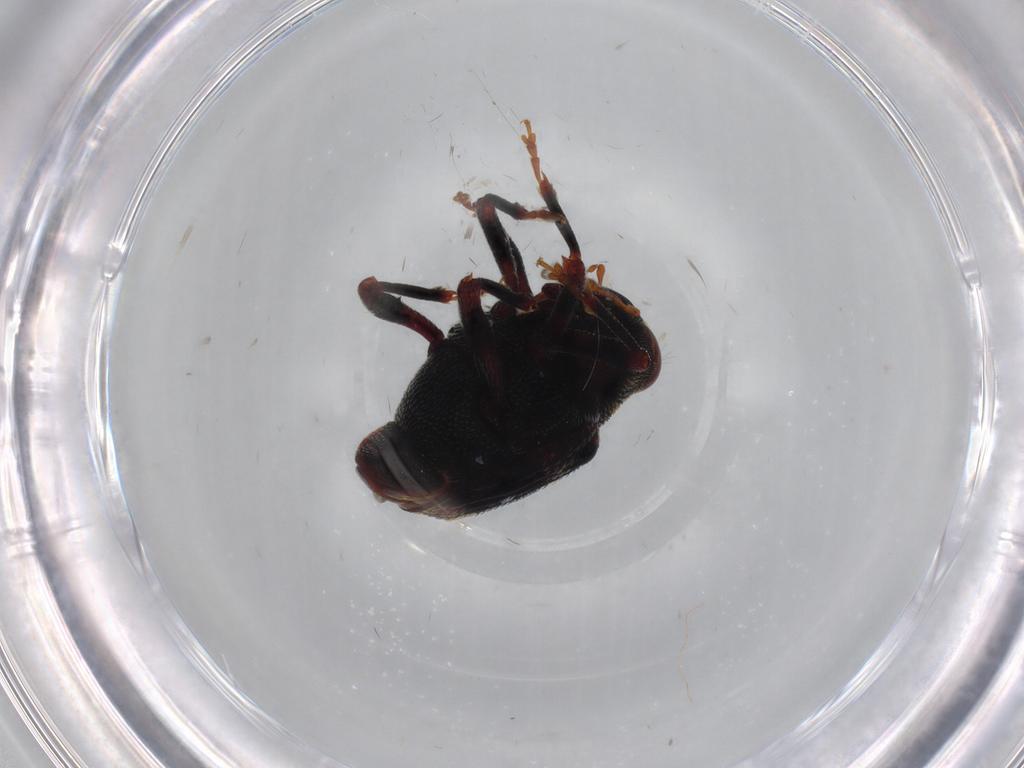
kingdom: Animalia
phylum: Arthropoda
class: Insecta
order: Coleoptera
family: Curculionidae
